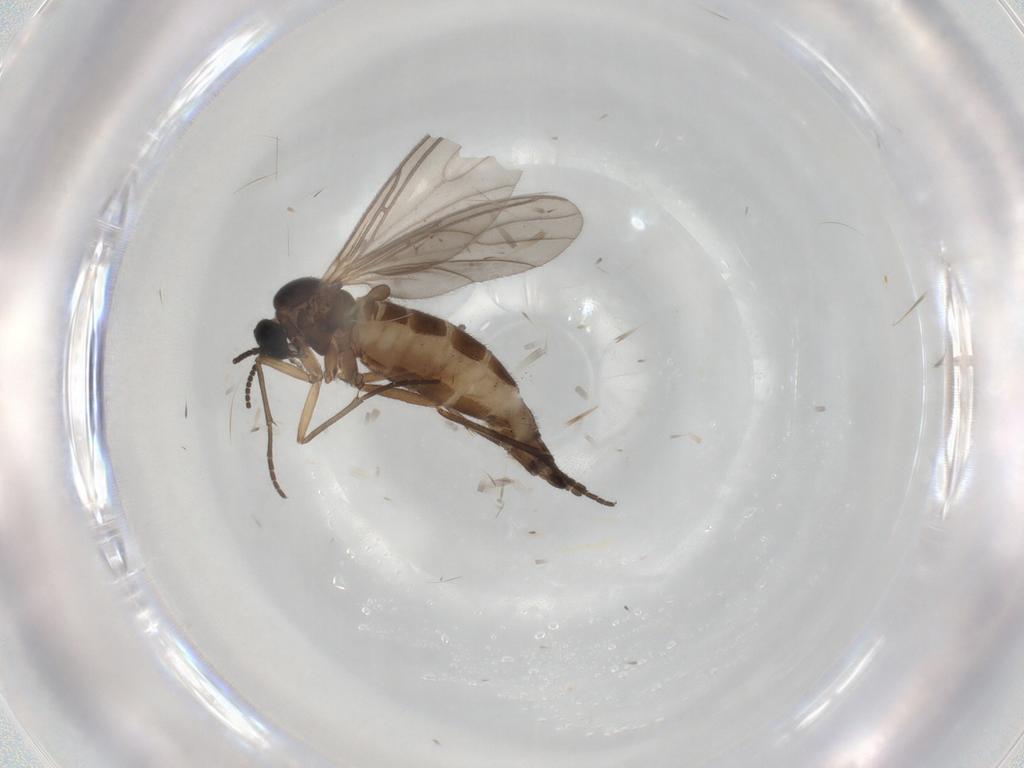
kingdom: Animalia
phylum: Arthropoda
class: Insecta
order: Diptera
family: Sciaridae
